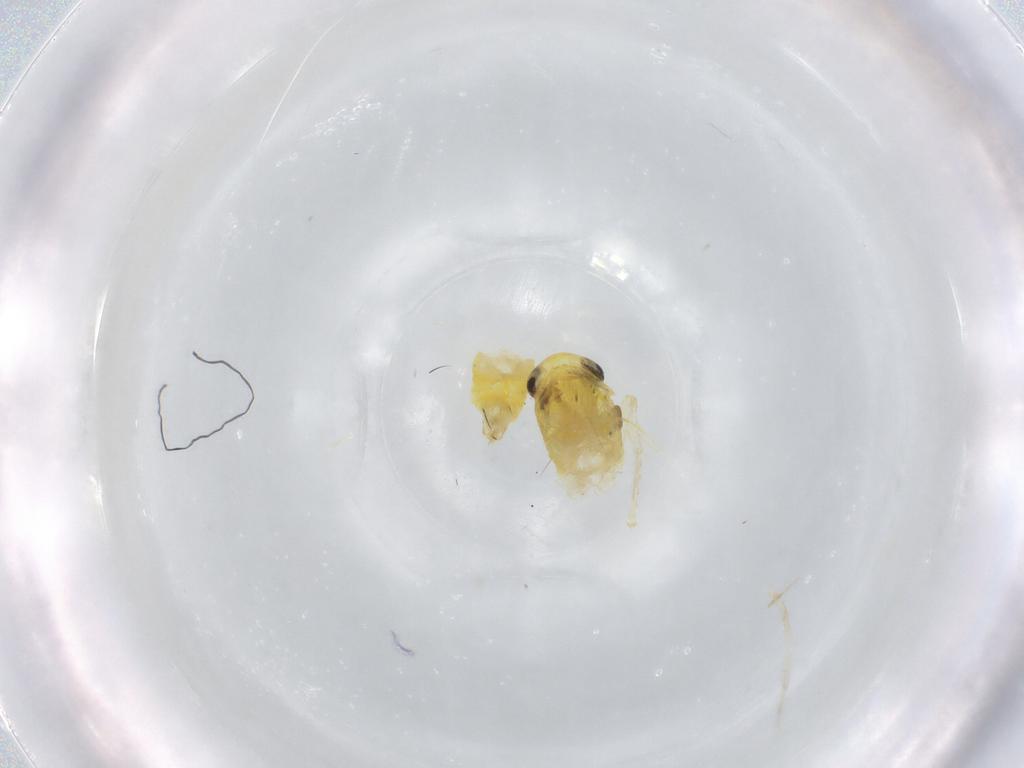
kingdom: Animalia
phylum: Arthropoda
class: Insecta
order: Hemiptera
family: Cicadellidae
